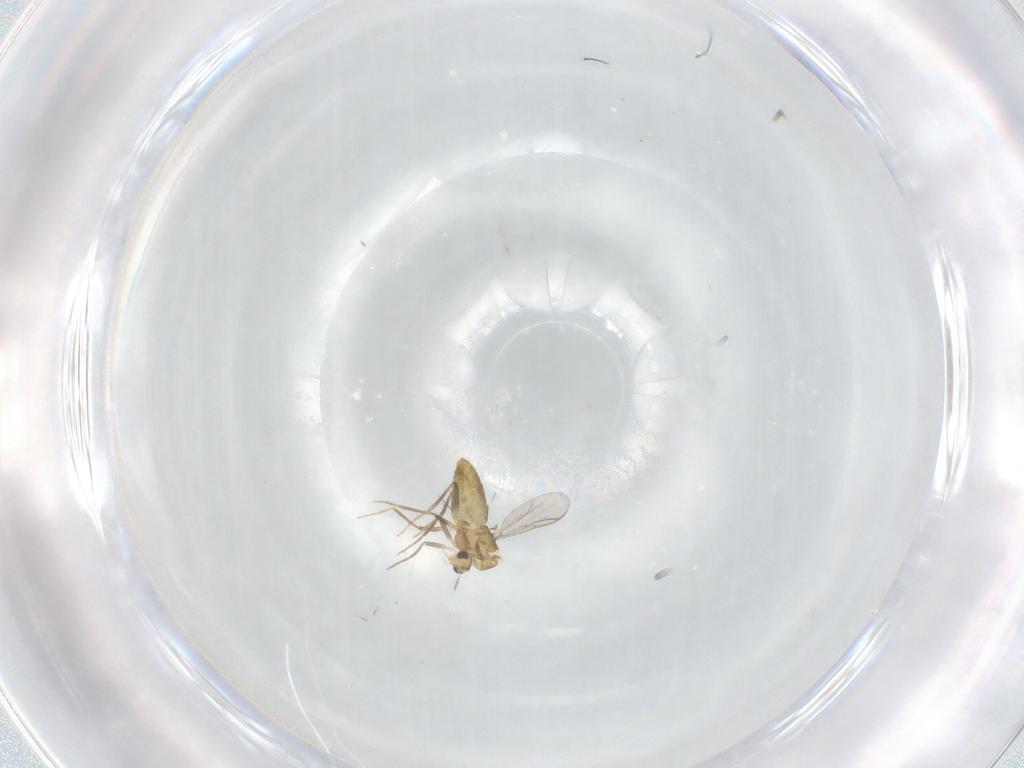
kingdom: Animalia
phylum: Arthropoda
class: Insecta
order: Diptera
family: Chironomidae
